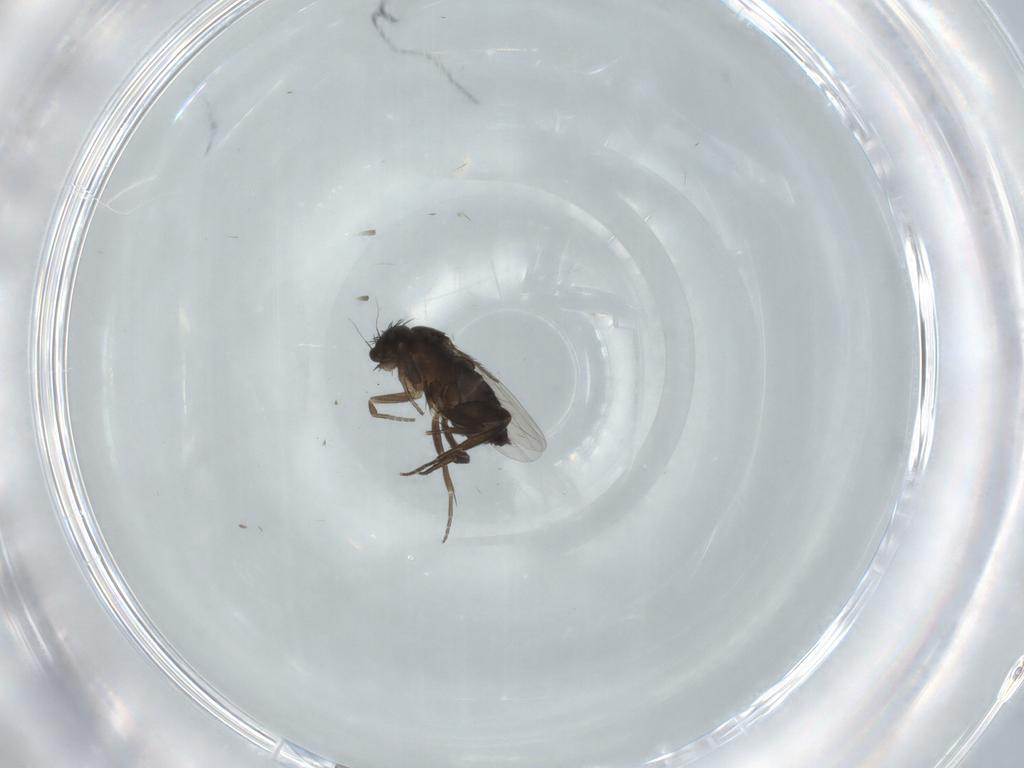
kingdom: Animalia
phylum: Arthropoda
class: Insecta
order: Diptera
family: Phoridae
